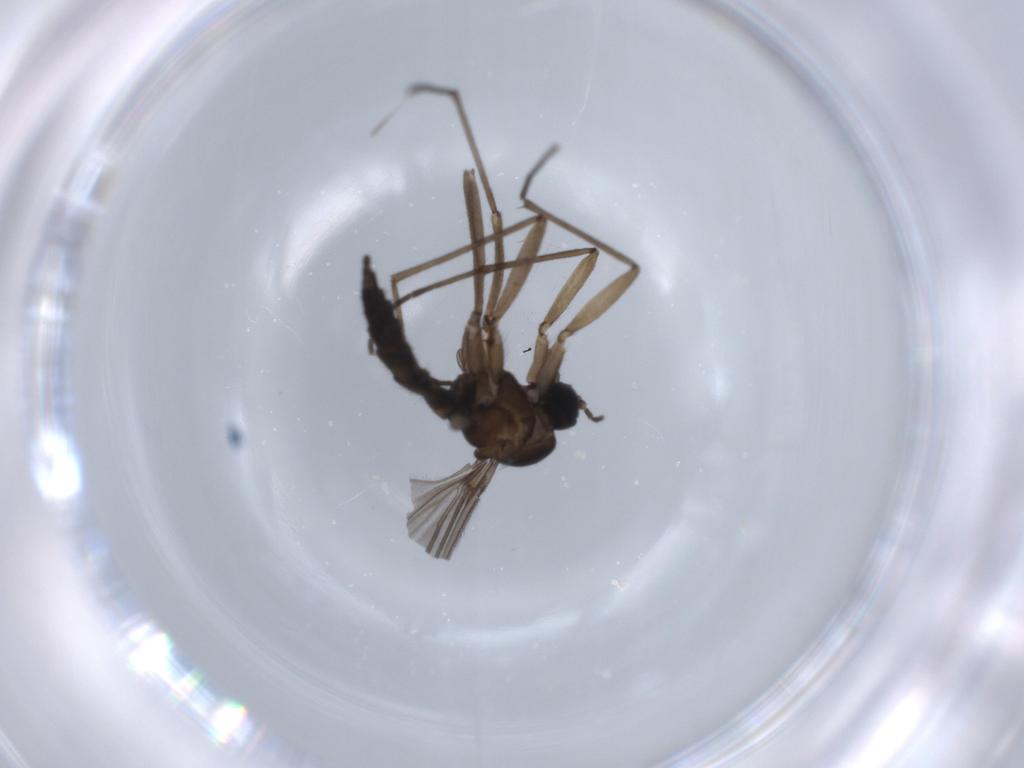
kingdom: Animalia
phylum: Arthropoda
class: Insecta
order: Diptera
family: Sciaridae
